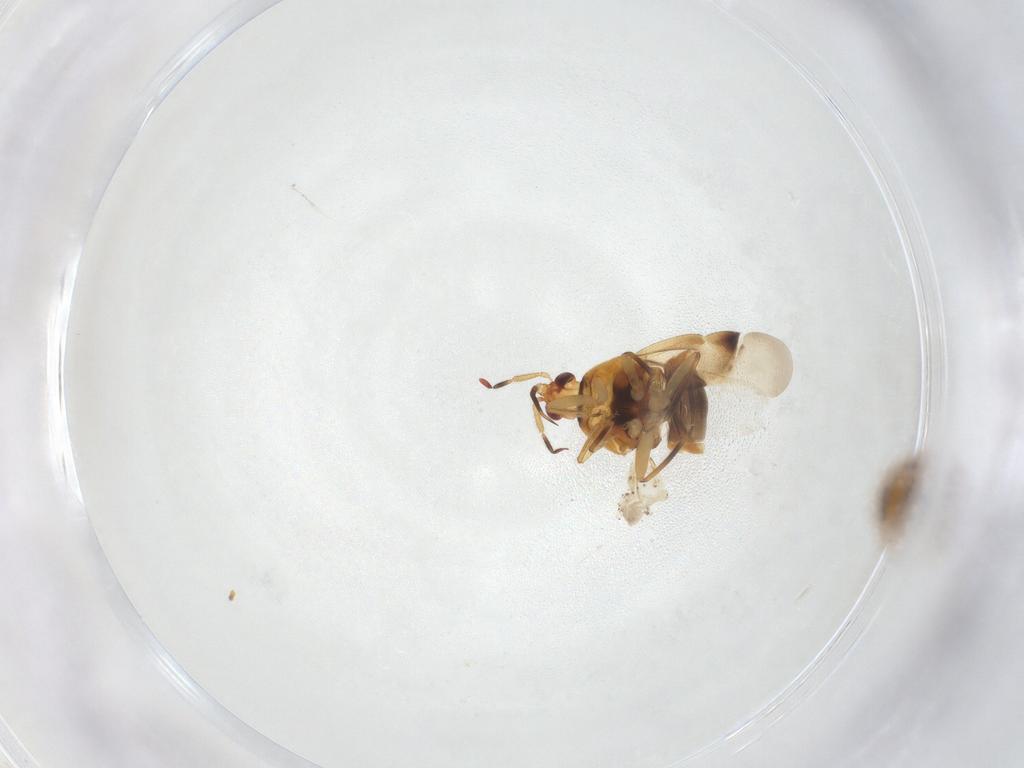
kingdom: Animalia
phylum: Arthropoda
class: Insecta
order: Hemiptera
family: Anthocoridae
